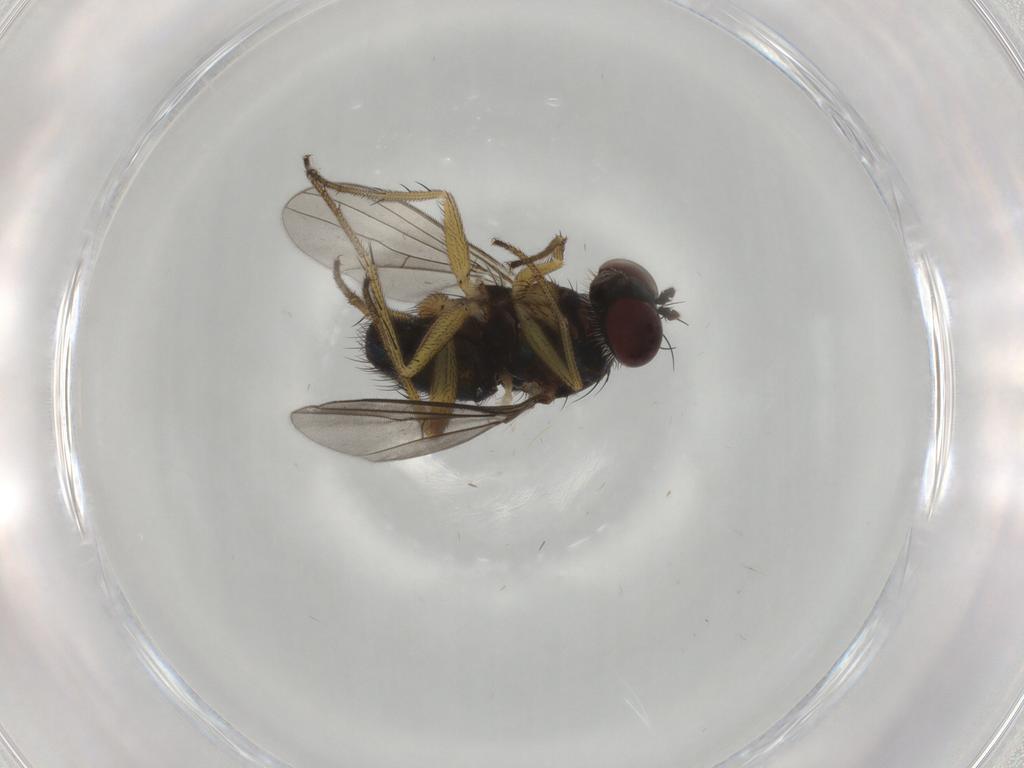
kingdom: Animalia
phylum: Arthropoda
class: Insecta
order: Diptera
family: Dolichopodidae
